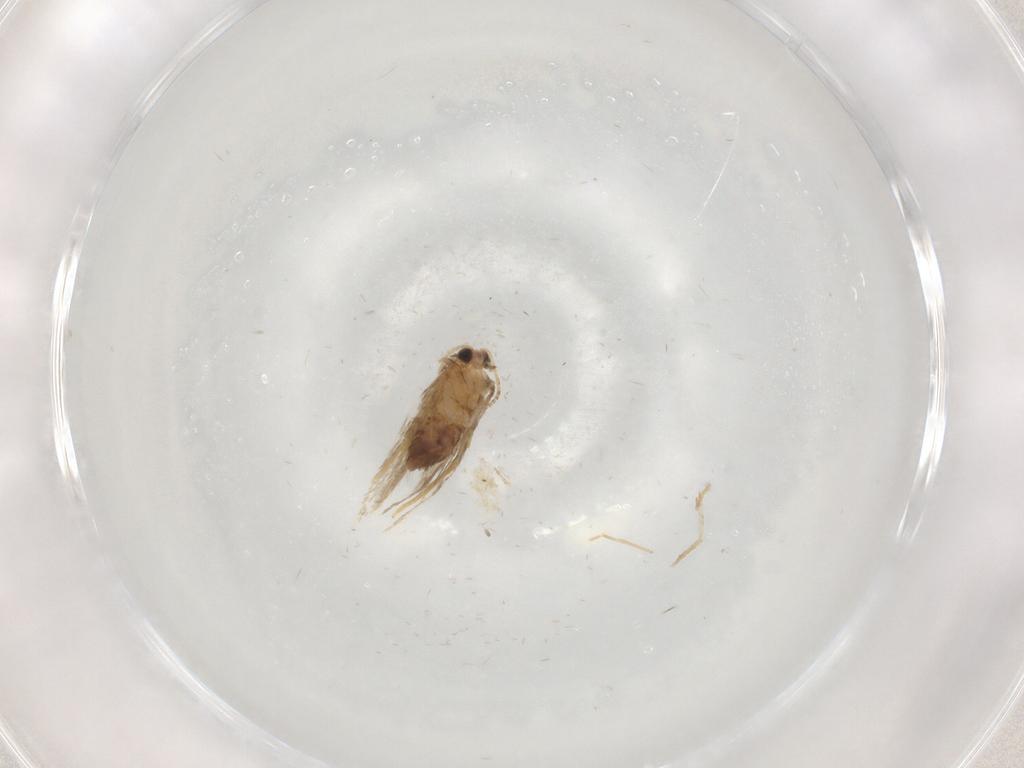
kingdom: Animalia
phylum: Arthropoda
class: Insecta
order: Lepidoptera
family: Nepticulidae
